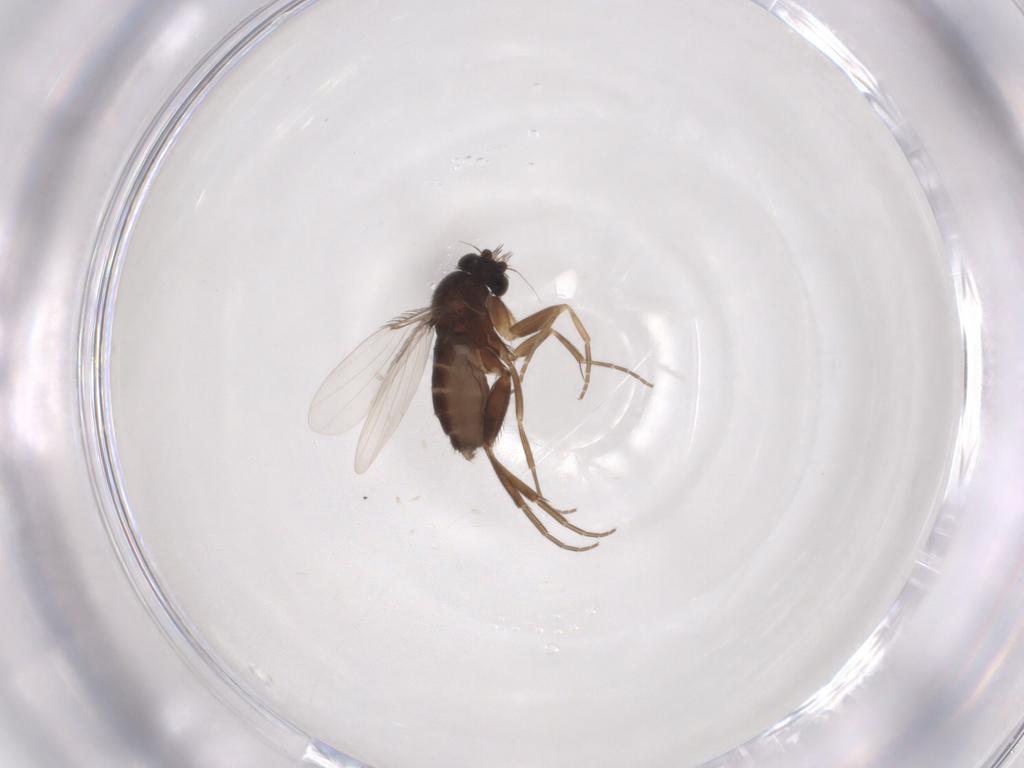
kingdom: Animalia
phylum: Arthropoda
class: Insecta
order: Diptera
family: Phoridae
